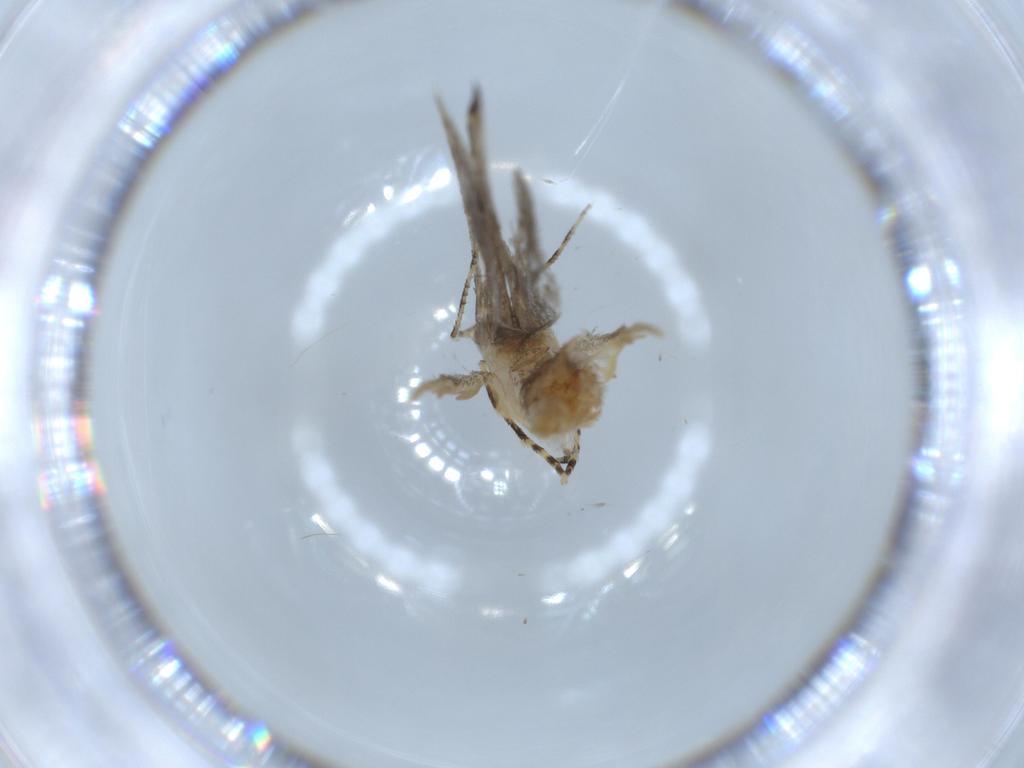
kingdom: Animalia
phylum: Arthropoda
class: Insecta
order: Lepidoptera
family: Tineidae
